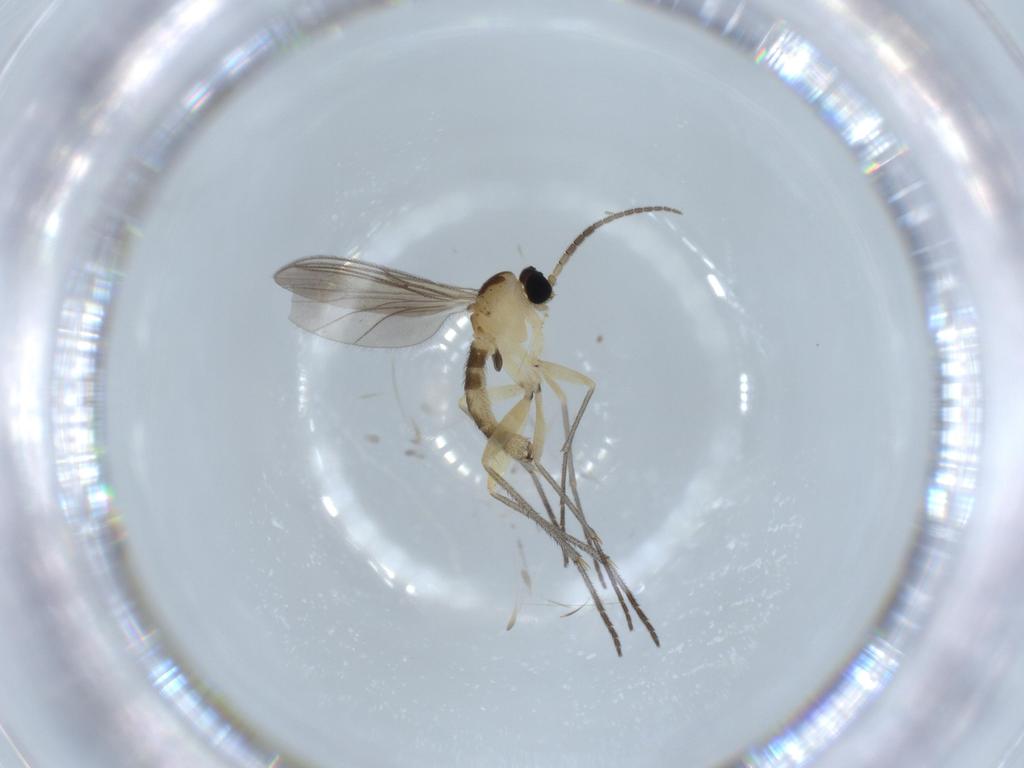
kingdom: Animalia
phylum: Arthropoda
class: Insecta
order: Diptera
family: Sciaridae
